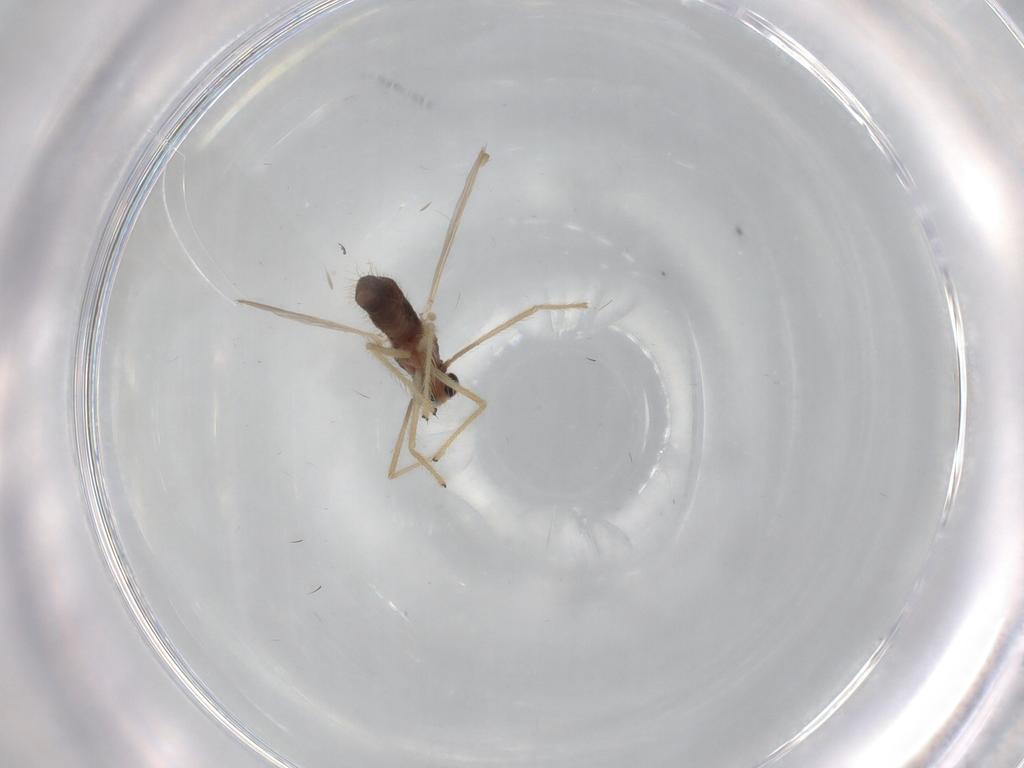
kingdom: Animalia
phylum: Arthropoda
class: Insecta
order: Diptera
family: Chironomidae
